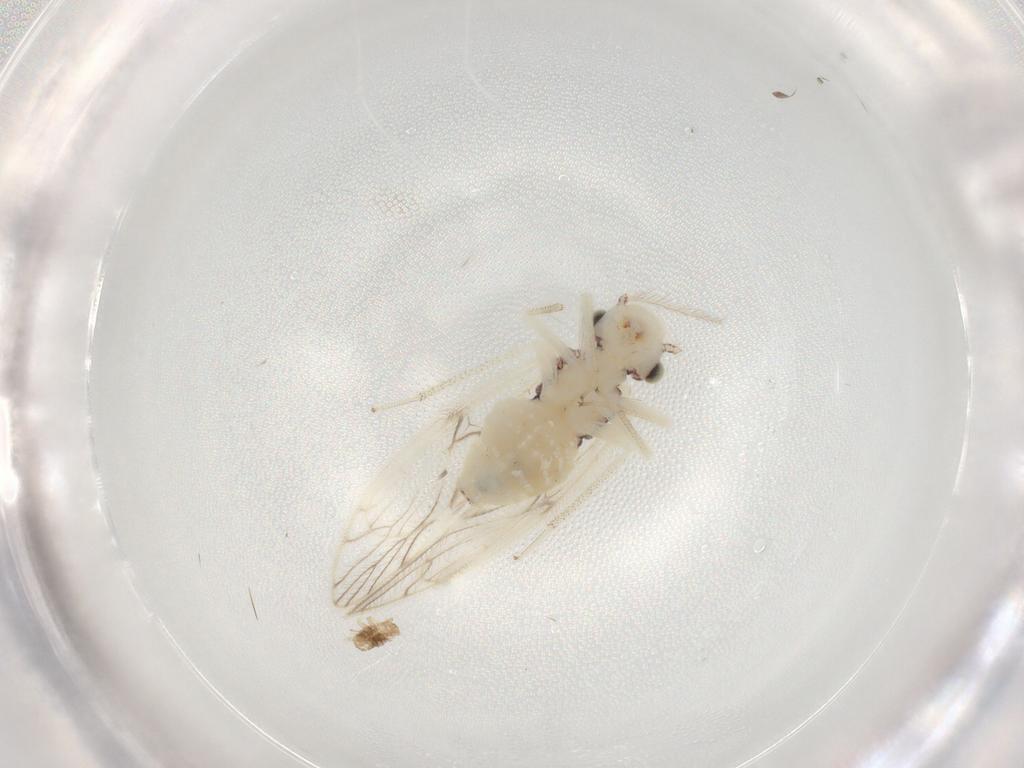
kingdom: Animalia
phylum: Arthropoda
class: Insecta
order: Psocodea
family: Philotarsidae
